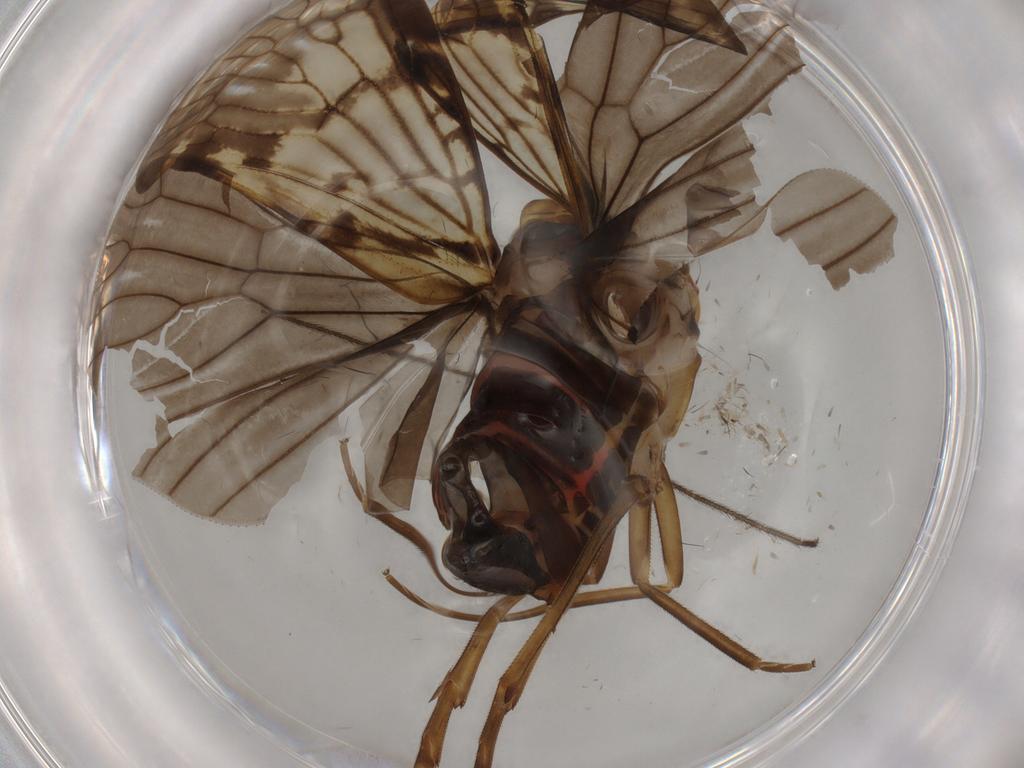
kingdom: Animalia
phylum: Arthropoda
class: Insecta
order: Hemiptera
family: Cixiidae
